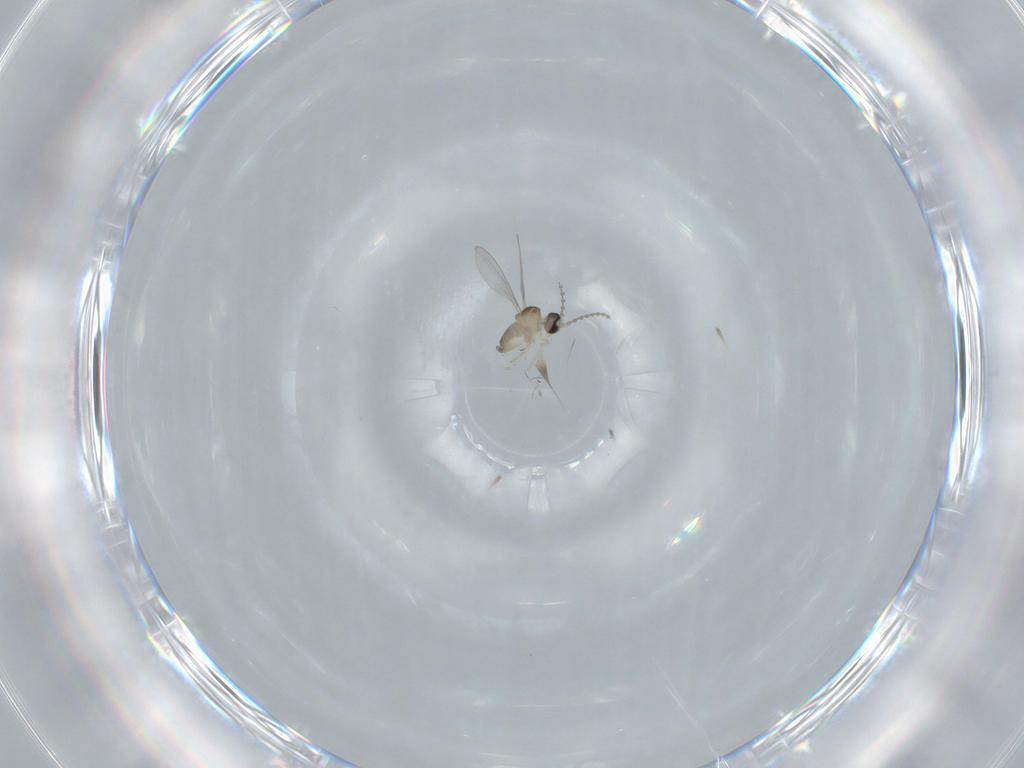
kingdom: Animalia
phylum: Arthropoda
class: Insecta
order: Diptera
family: Cecidomyiidae
